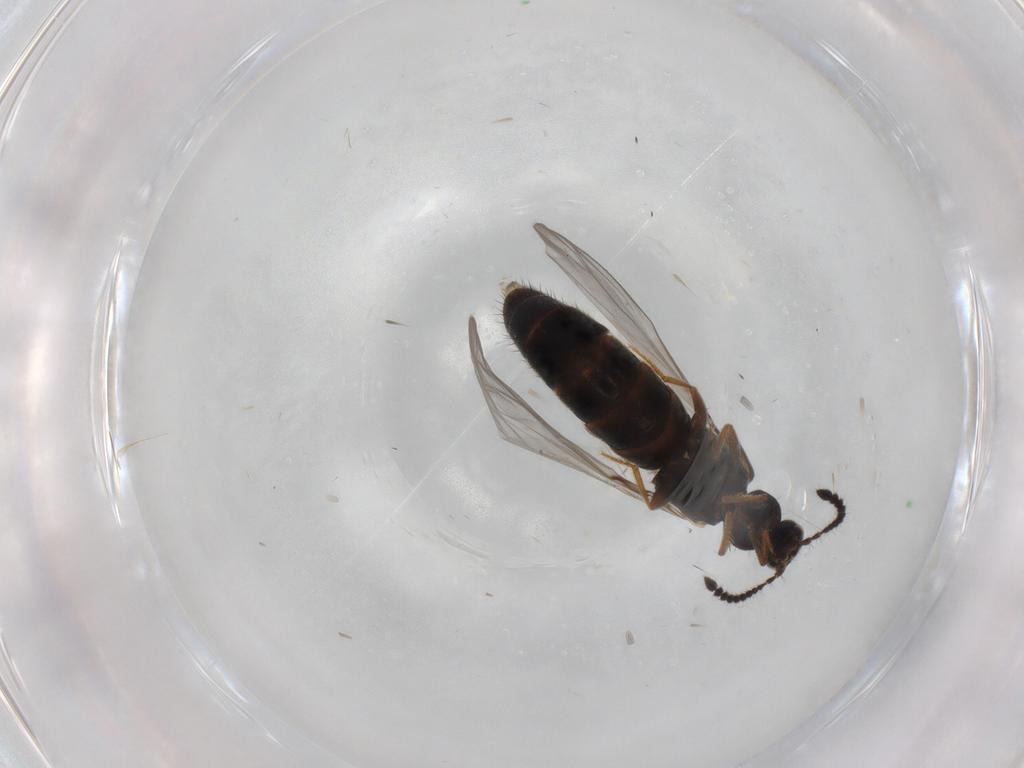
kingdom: Animalia
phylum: Arthropoda
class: Insecta
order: Coleoptera
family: Staphylinidae
